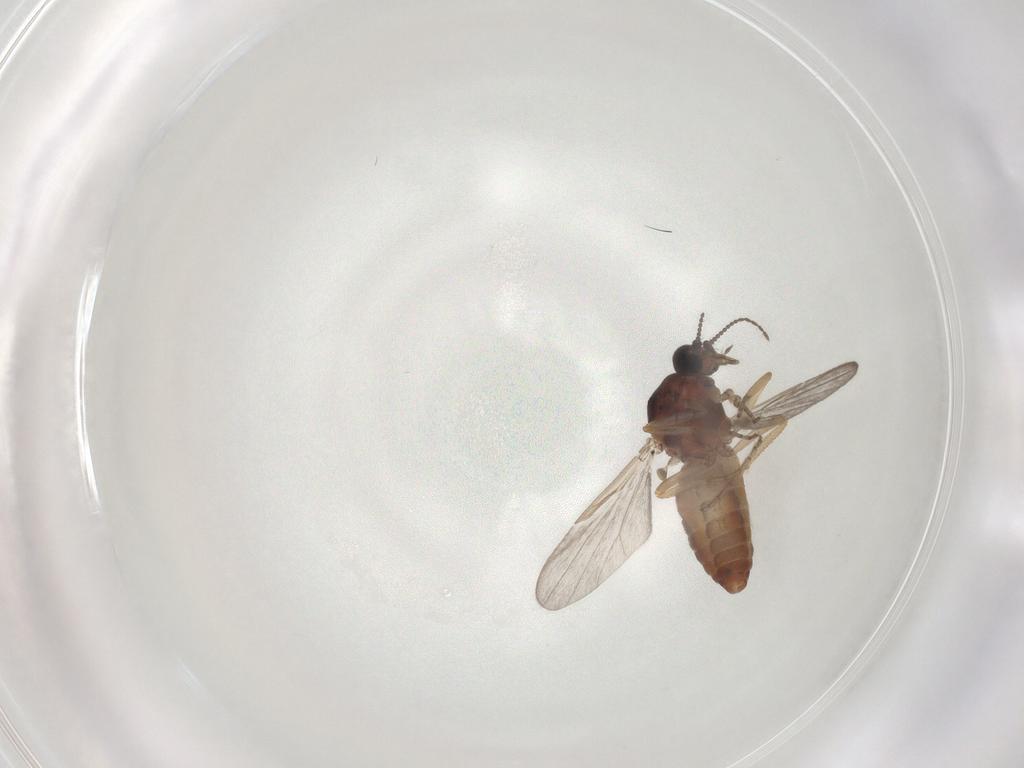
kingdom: Animalia
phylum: Arthropoda
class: Insecta
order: Diptera
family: Ceratopogonidae
